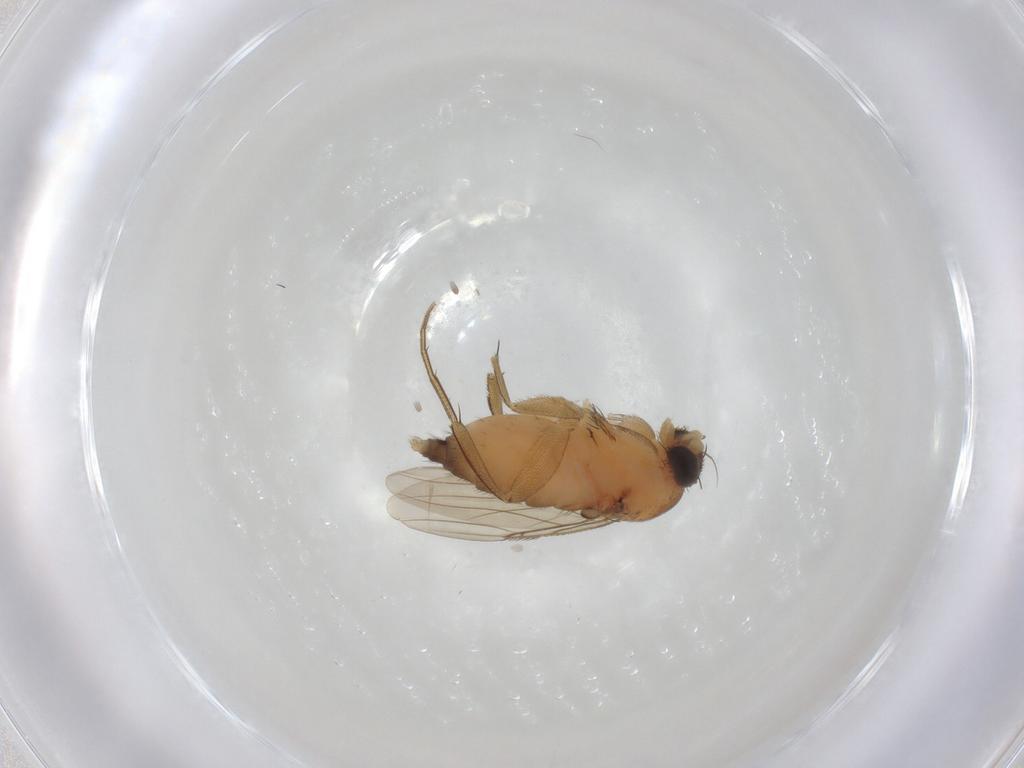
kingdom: Animalia
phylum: Arthropoda
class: Insecta
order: Diptera
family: Sphaeroceridae
